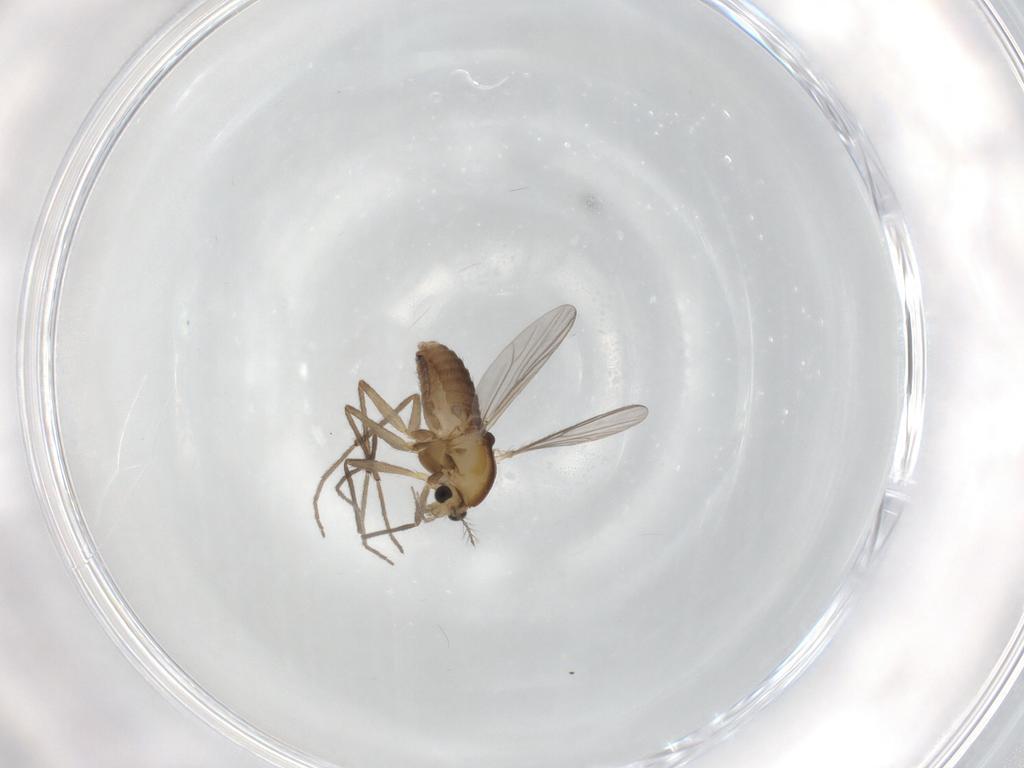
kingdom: Animalia
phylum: Arthropoda
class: Insecta
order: Diptera
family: Chironomidae
